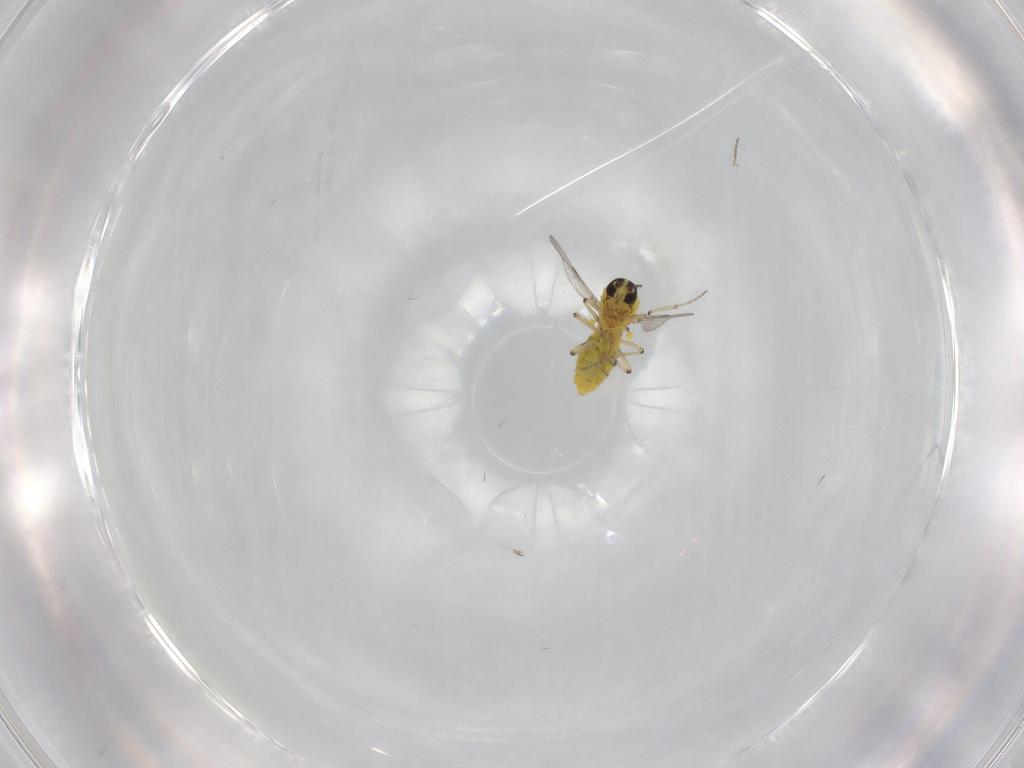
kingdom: Animalia
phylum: Arthropoda
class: Insecta
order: Diptera
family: Ceratopogonidae
